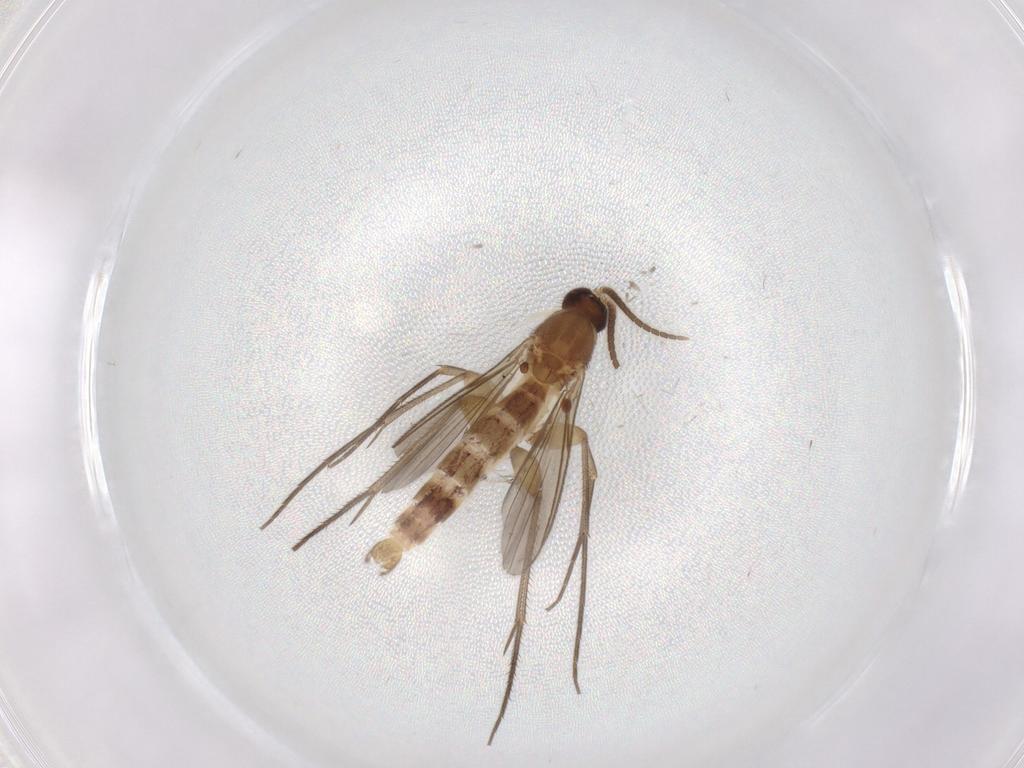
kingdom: Animalia
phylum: Arthropoda
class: Insecta
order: Diptera
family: Mycetophilidae
